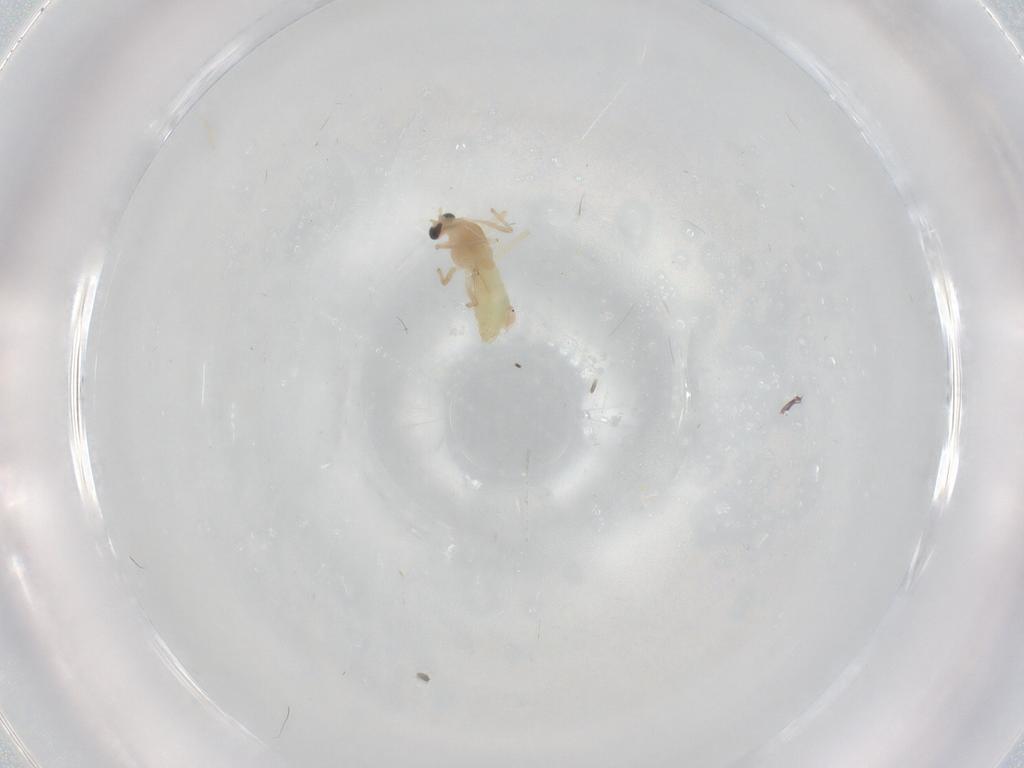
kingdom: Animalia
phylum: Arthropoda
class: Insecta
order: Diptera
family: Chironomidae
